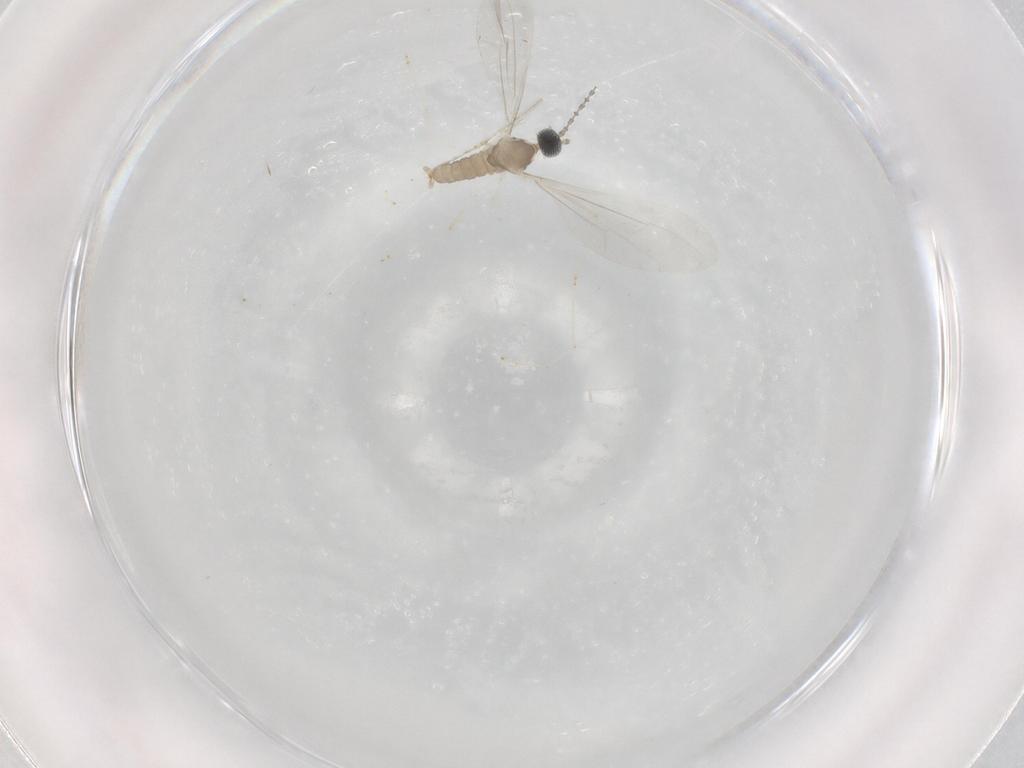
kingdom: Animalia
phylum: Arthropoda
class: Insecta
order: Diptera
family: Cecidomyiidae
